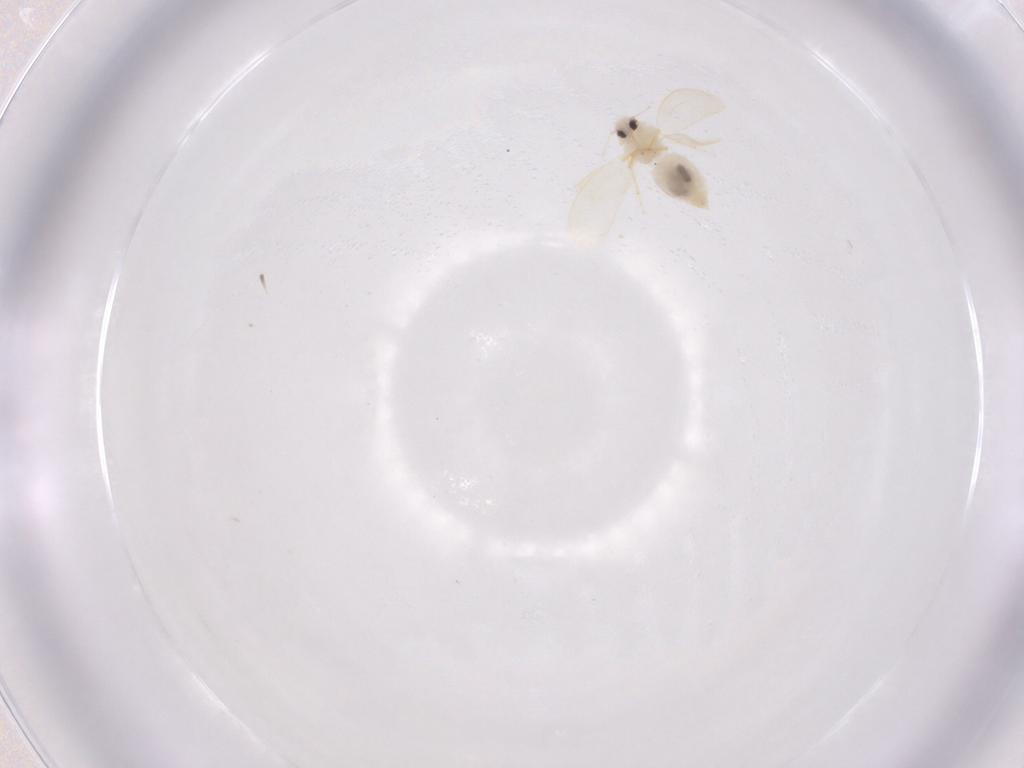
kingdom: Animalia
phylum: Arthropoda
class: Insecta
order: Hemiptera
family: Aleyrodidae
